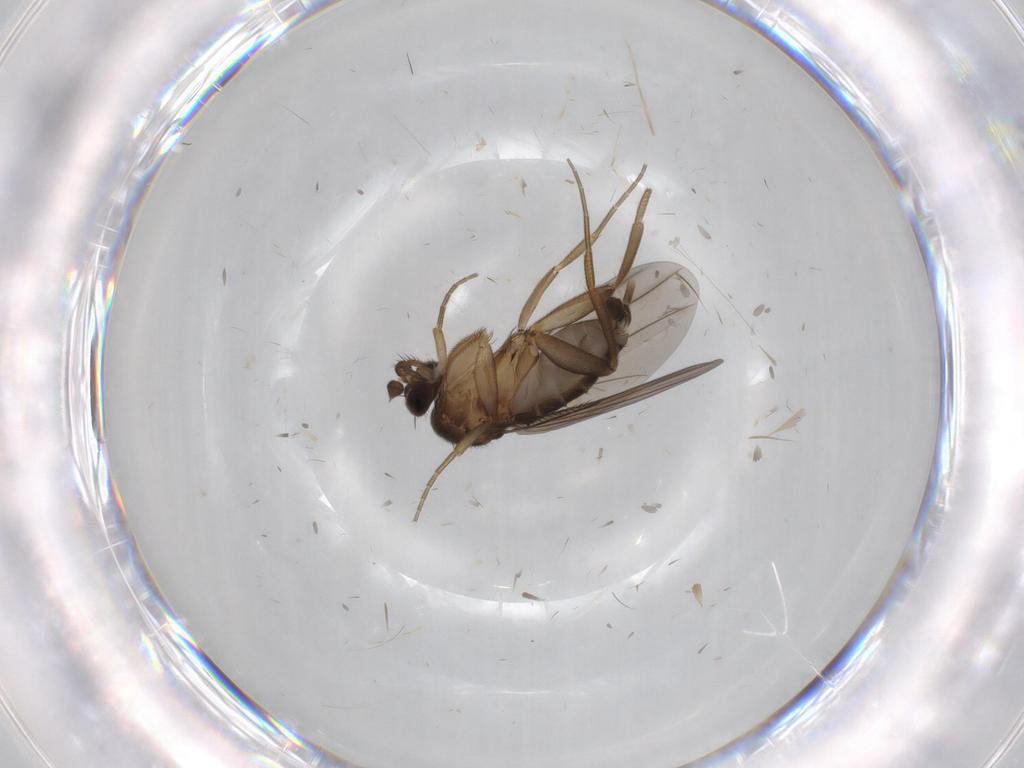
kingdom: Animalia
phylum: Arthropoda
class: Insecta
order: Diptera
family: Phoridae
